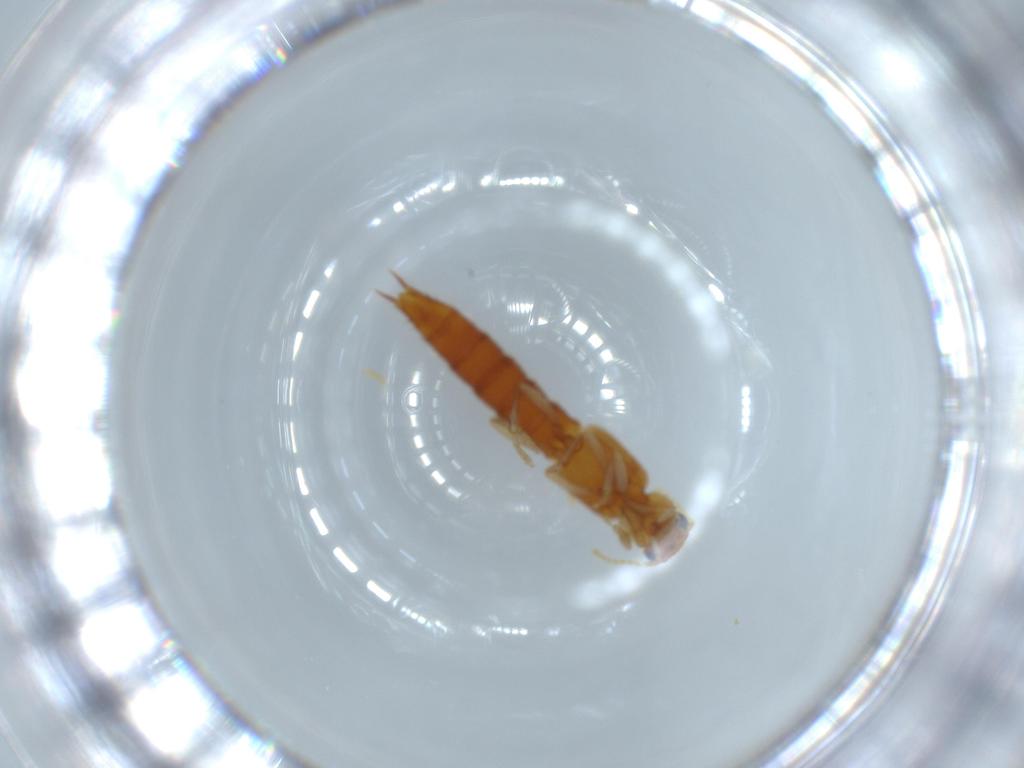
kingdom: Animalia
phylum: Arthropoda
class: Insecta
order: Coleoptera
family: Staphylinidae
